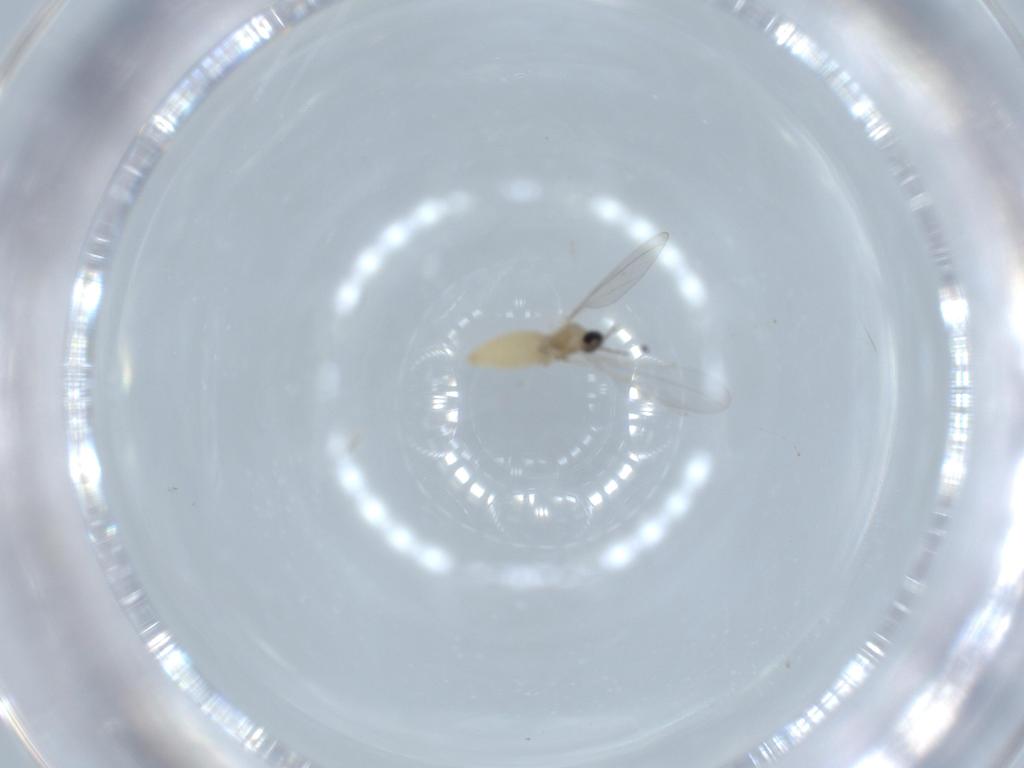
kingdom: Animalia
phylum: Arthropoda
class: Insecta
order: Diptera
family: Cecidomyiidae
